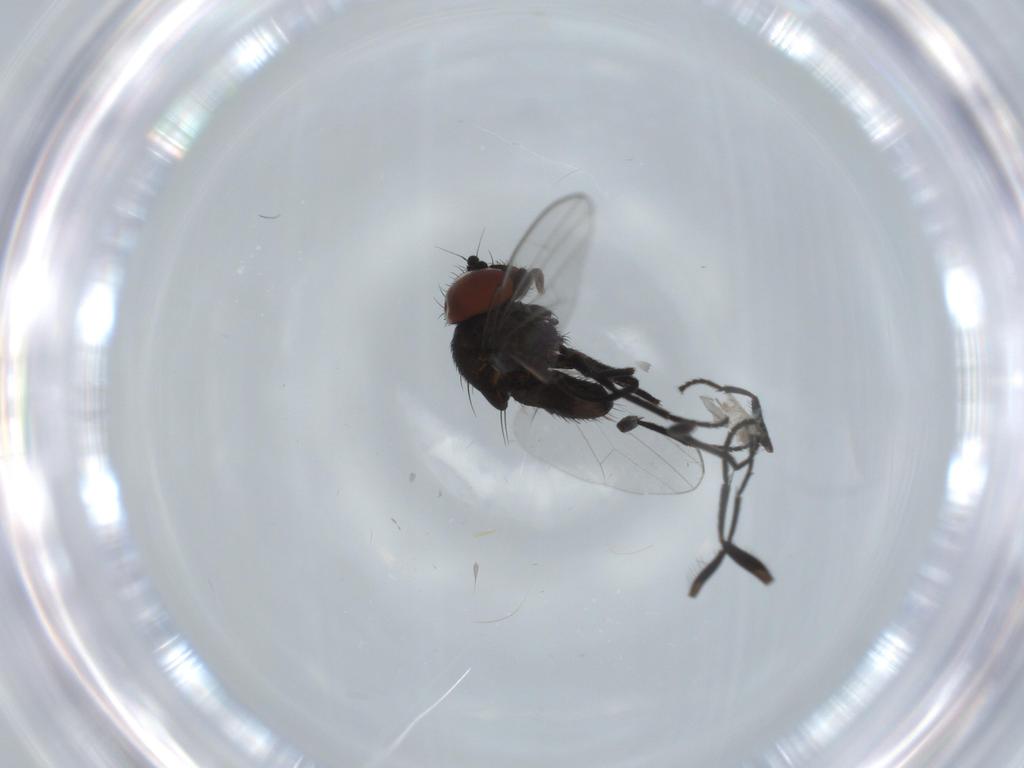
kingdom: Animalia
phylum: Arthropoda
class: Insecta
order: Diptera
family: Milichiidae
